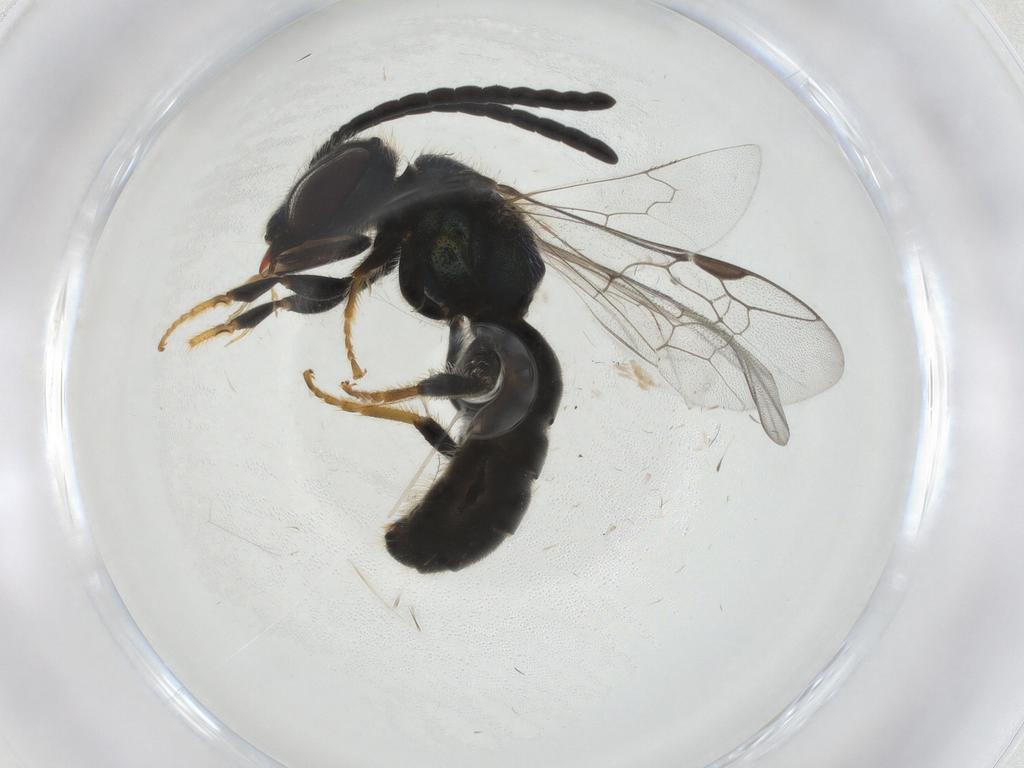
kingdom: Animalia
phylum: Arthropoda
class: Insecta
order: Hymenoptera
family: Halictidae
